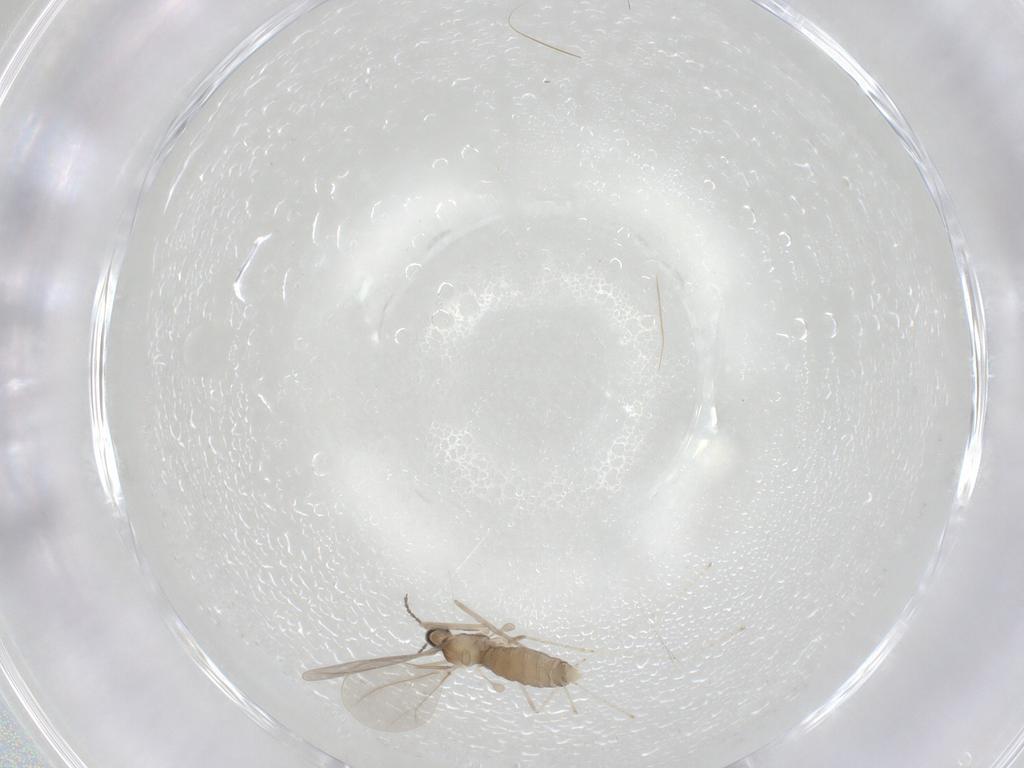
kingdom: Animalia
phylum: Arthropoda
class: Insecta
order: Diptera
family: Cecidomyiidae
